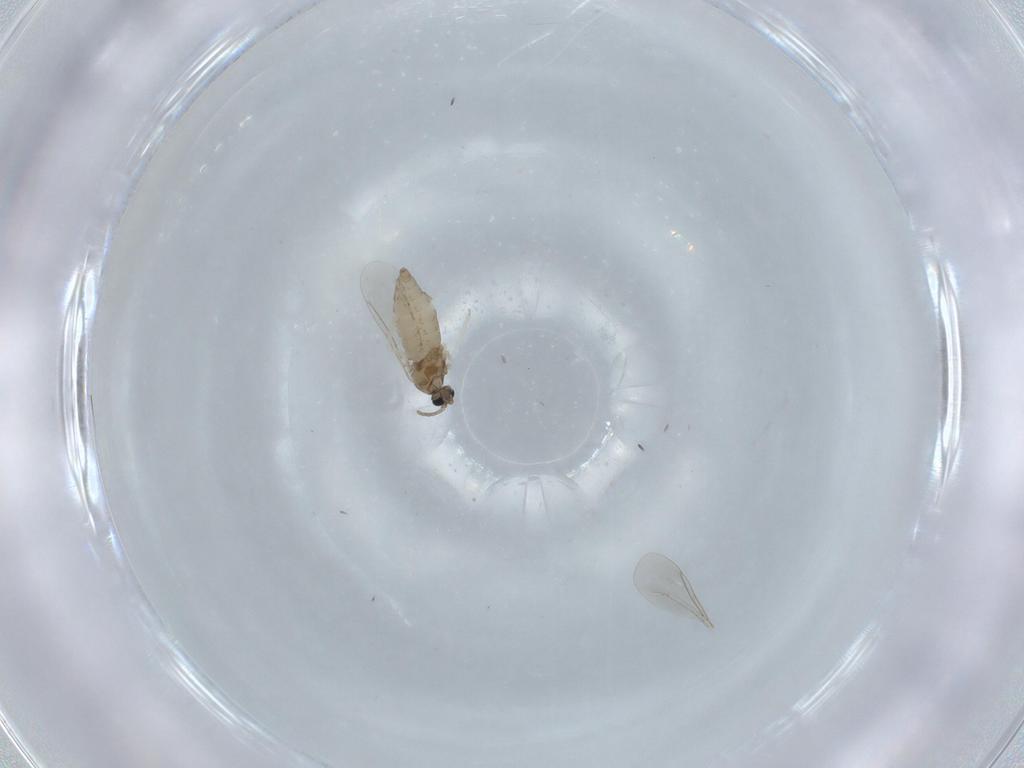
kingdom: Animalia
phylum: Arthropoda
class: Insecta
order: Diptera
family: Cecidomyiidae
